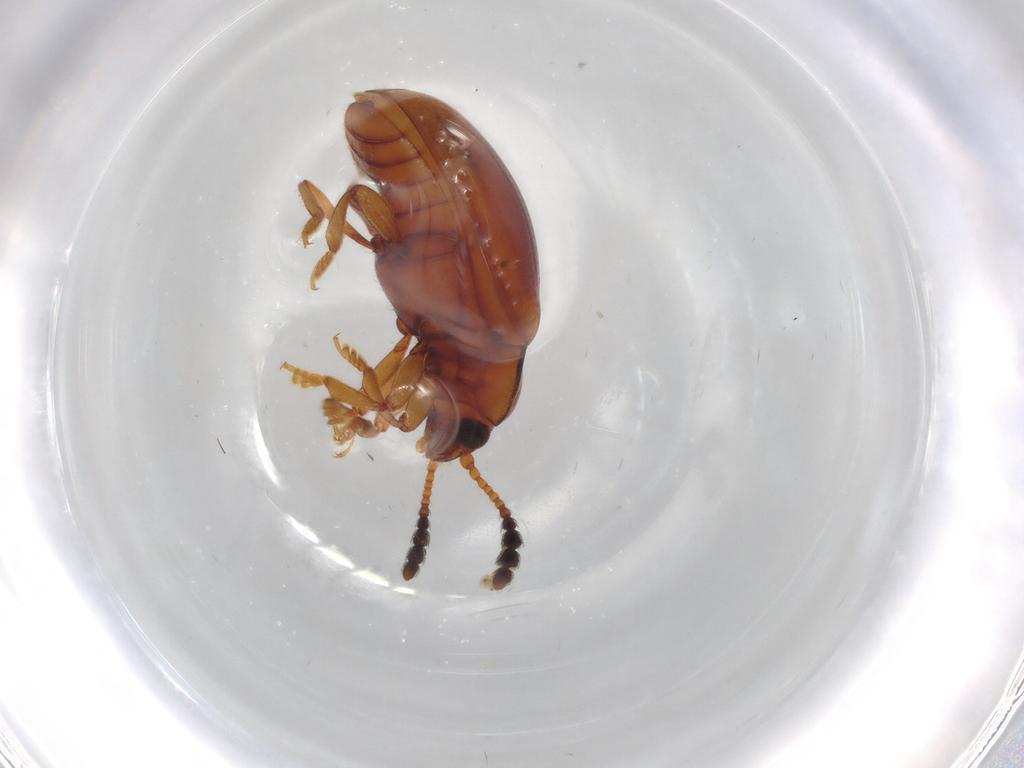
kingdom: Animalia
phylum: Arthropoda
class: Insecta
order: Coleoptera
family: Erotylidae
